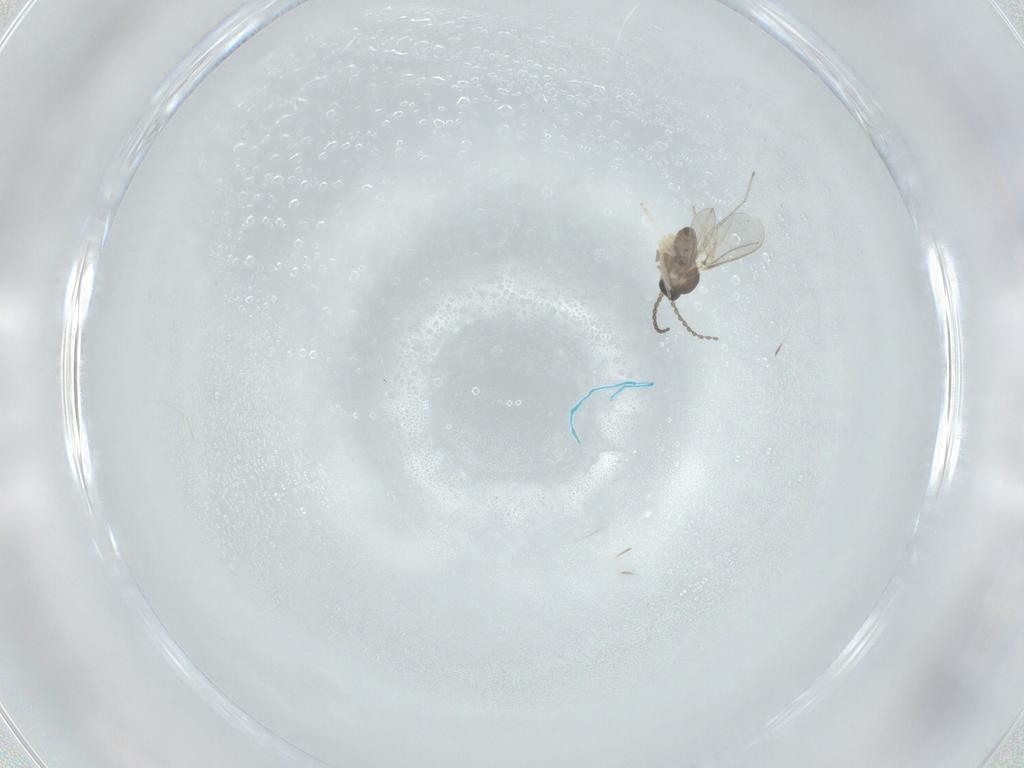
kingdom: Animalia
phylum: Arthropoda
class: Insecta
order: Diptera
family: Cecidomyiidae
